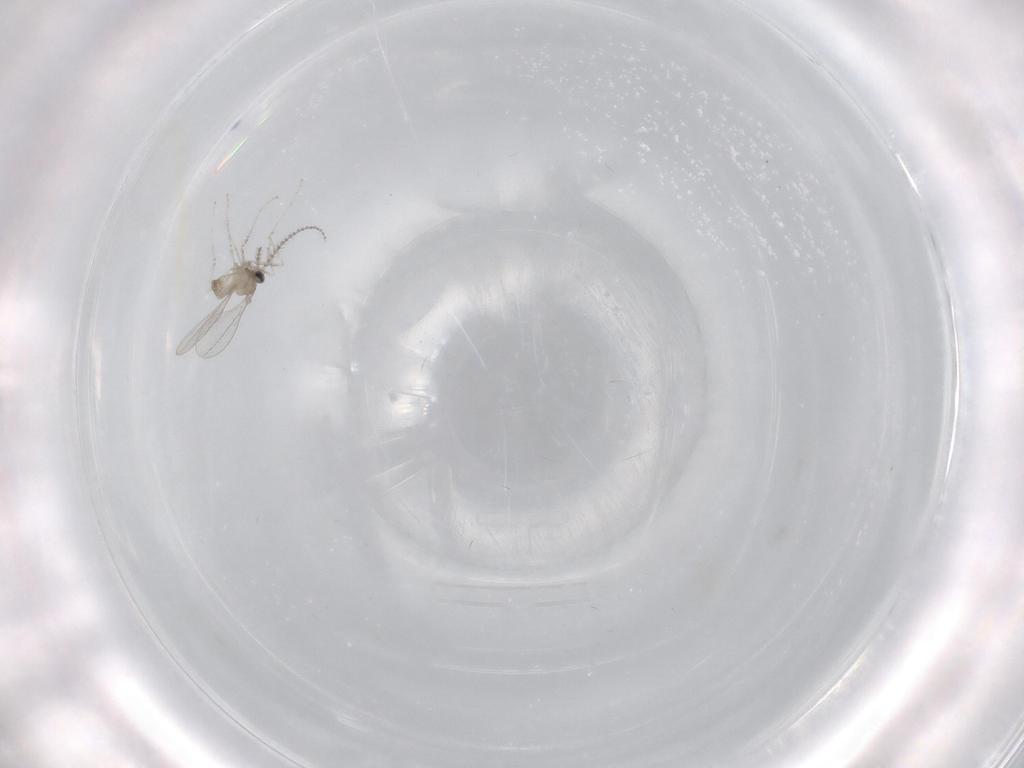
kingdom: Animalia
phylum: Arthropoda
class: Insecta
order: Diptera
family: Cecidomyiidae
